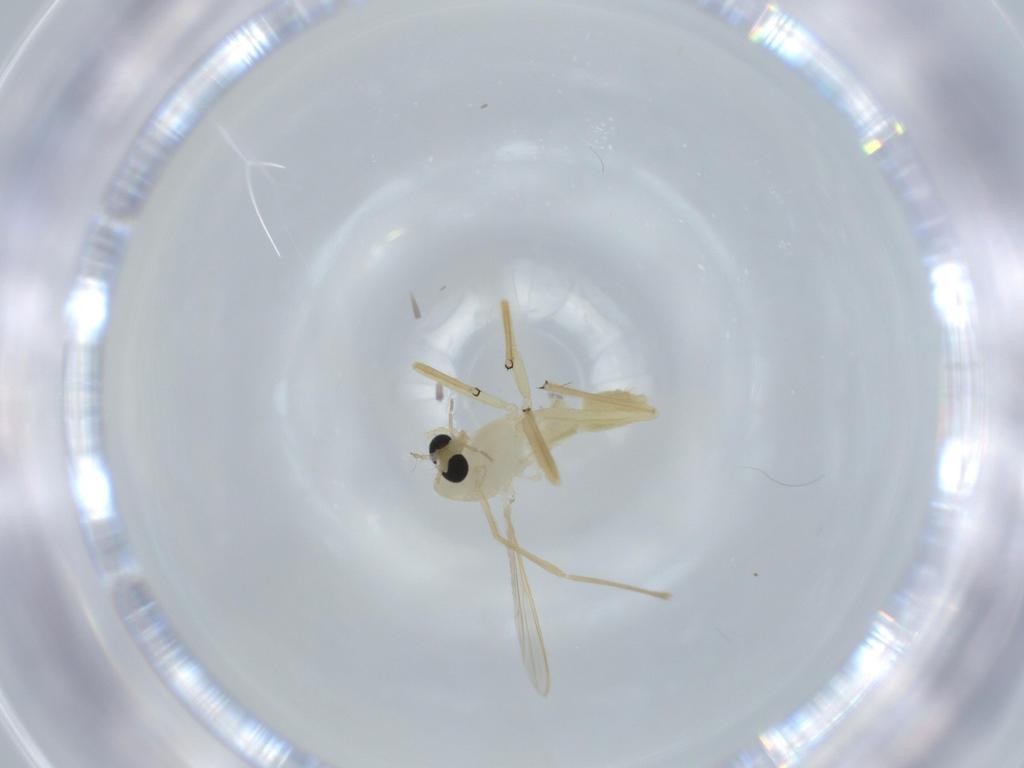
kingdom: Animalia
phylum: Arthropoda
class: Insecta
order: Diptera
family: Chironomidae
